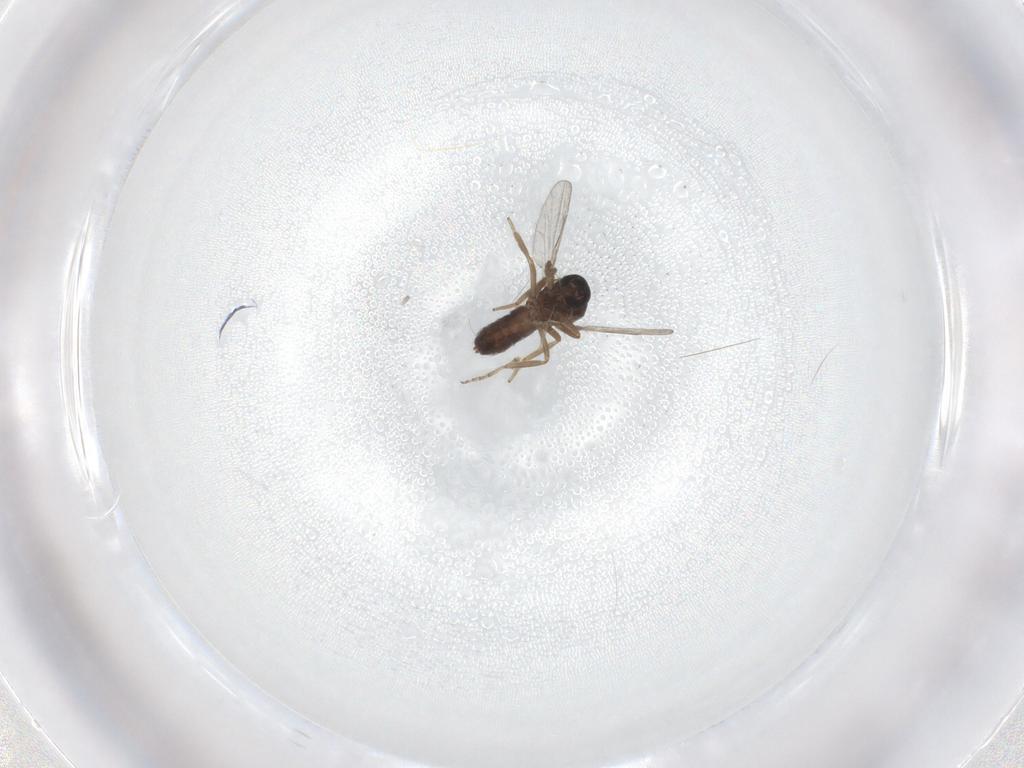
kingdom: Animalia
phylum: Arthropoda
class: Insecta
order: Diptera
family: Ceratopogonidae
